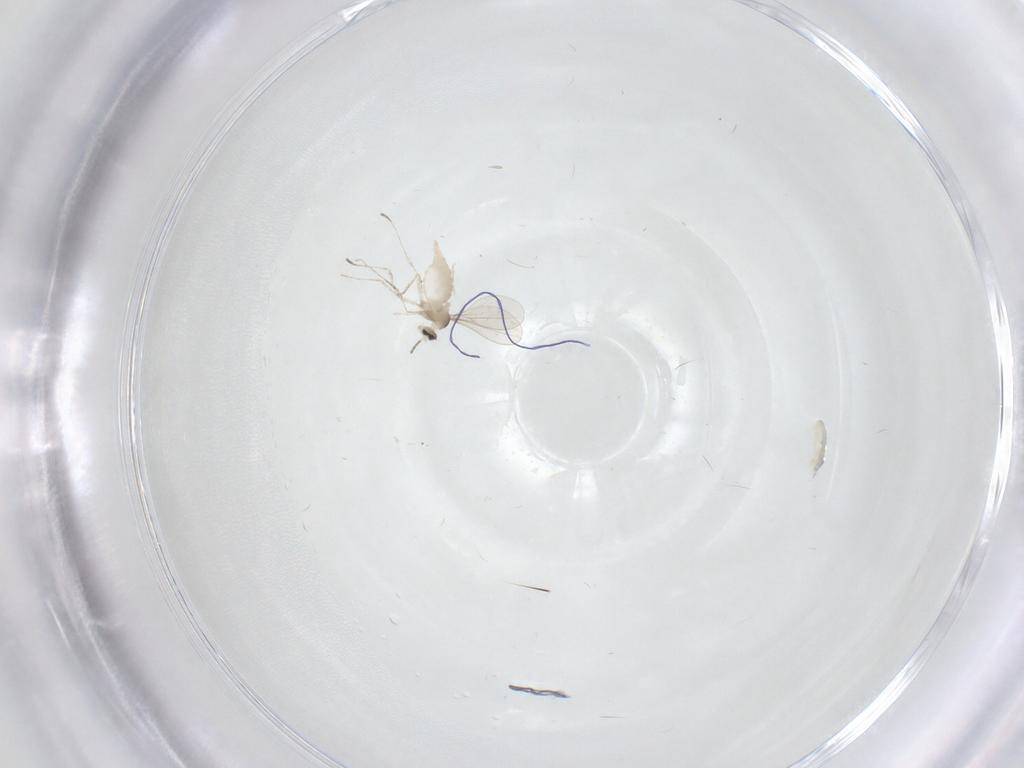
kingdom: Animalia
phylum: Arthropoda
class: Insecta
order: Diptera
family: Cecidomyiidae
